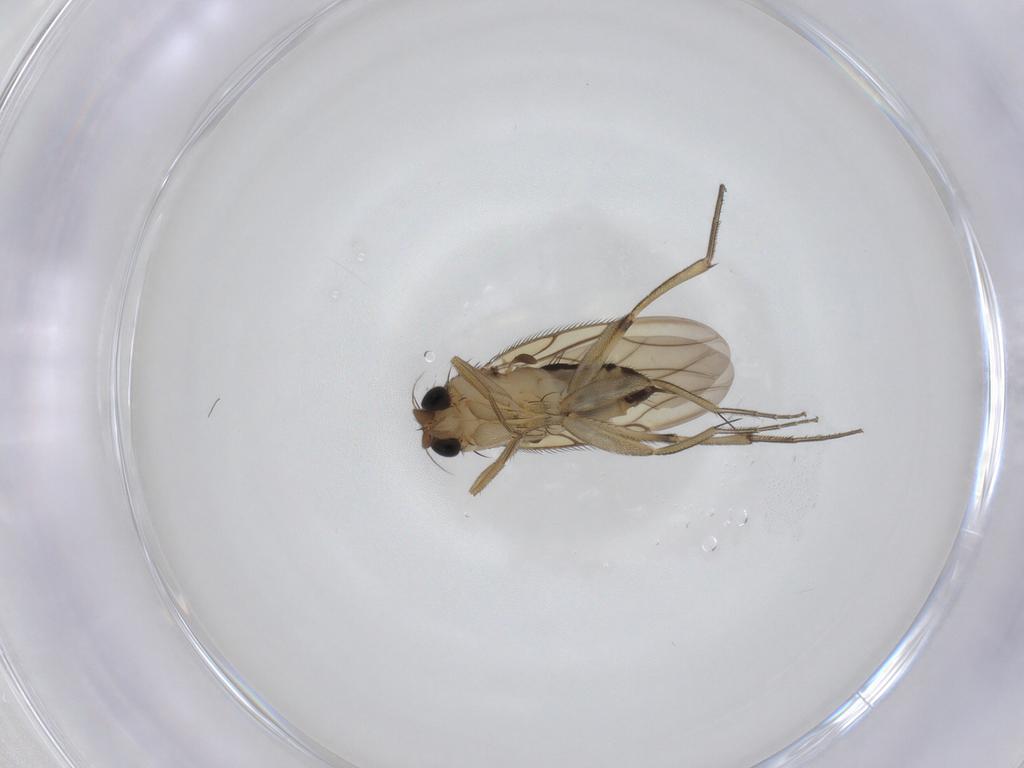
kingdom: Animalia
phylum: Arthropoda
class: Insecta
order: Diptera
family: Phoridae
